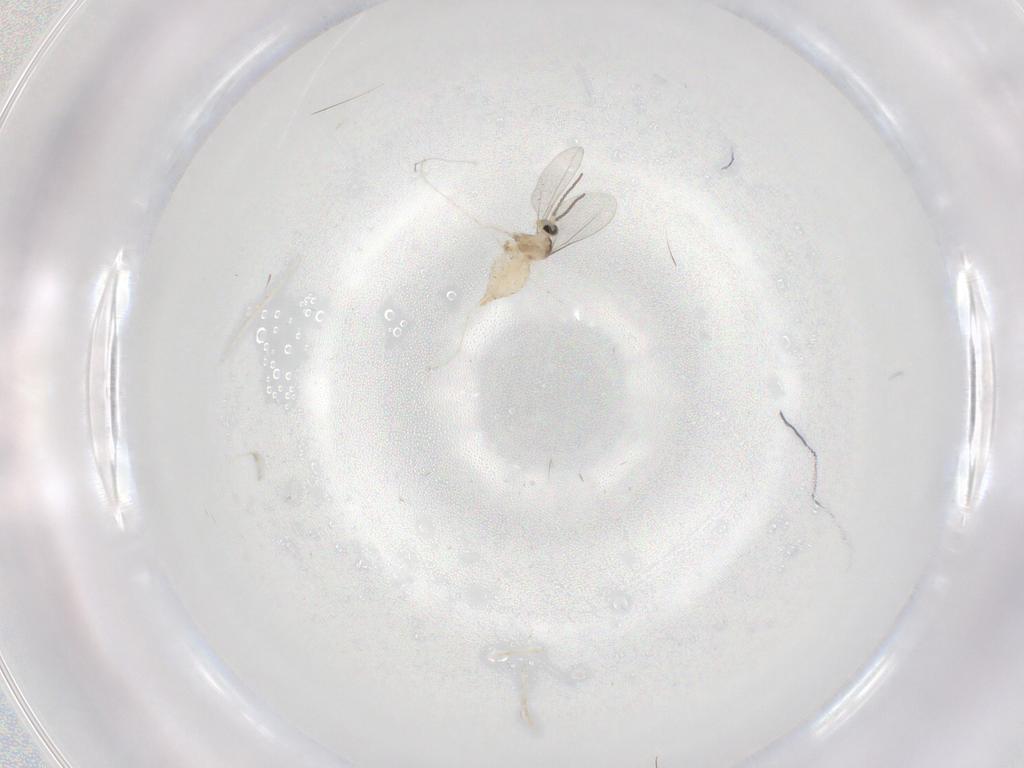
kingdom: Animalia
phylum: Arthropoda
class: Insecta
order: Diptera
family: Cecidomyiidae
